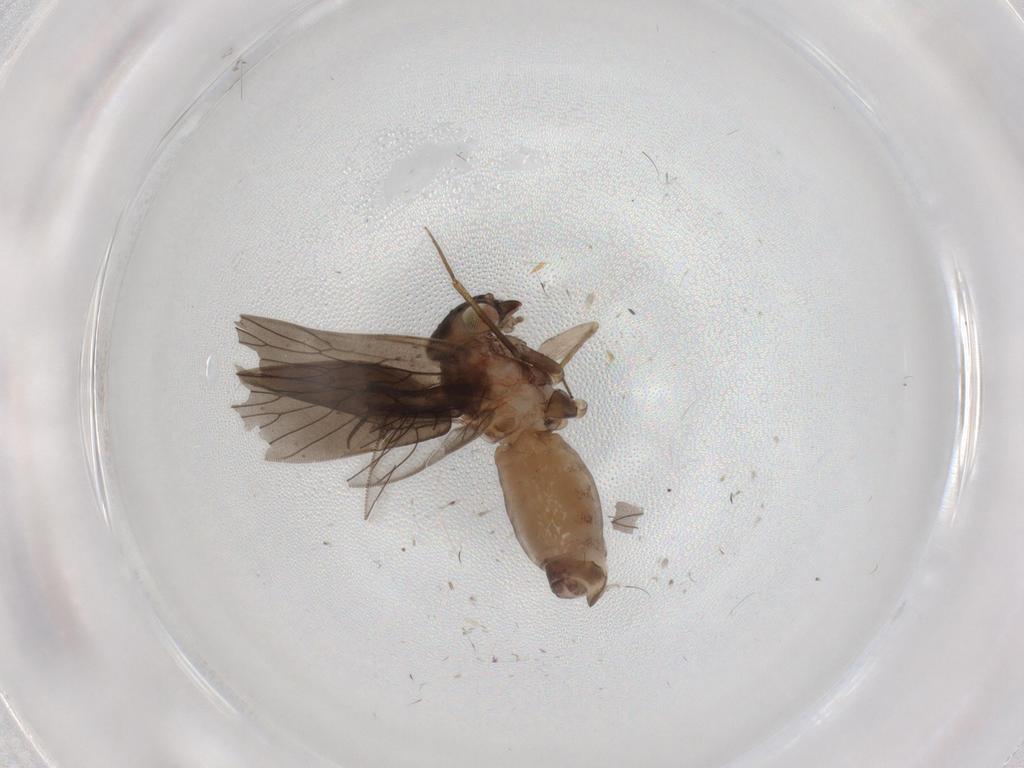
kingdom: Animalia
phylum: Arthropoda
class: Insecta
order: Psocodea
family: Lepidopsocidae
